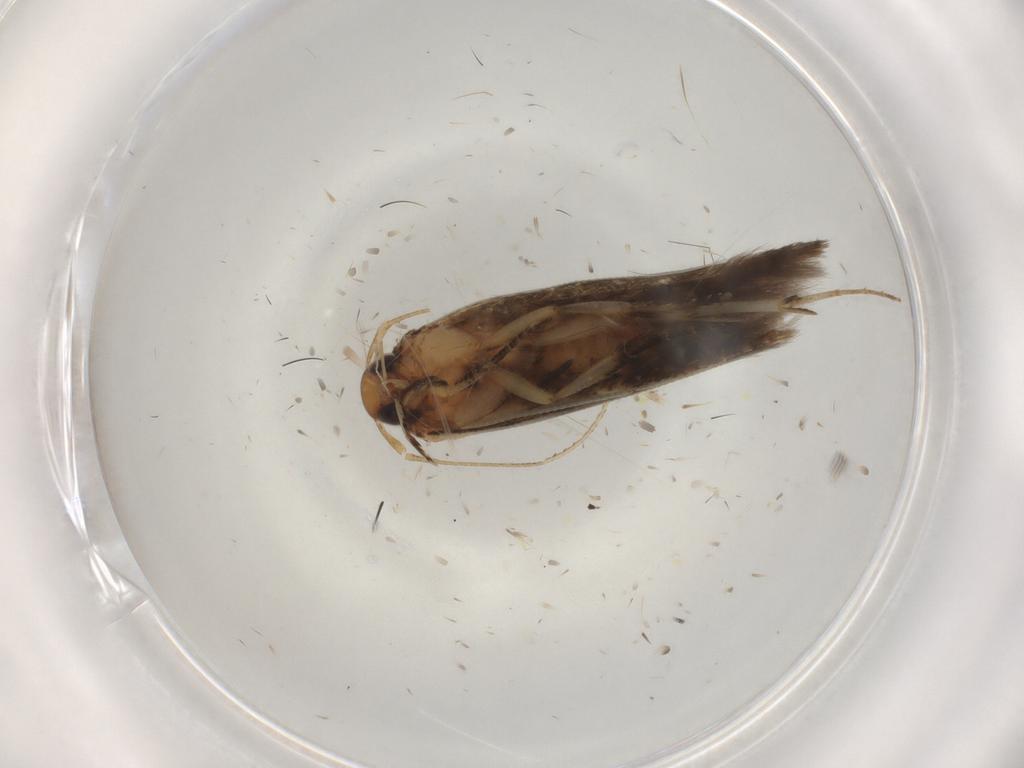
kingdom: Animalia
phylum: Arthropoda
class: Insecta
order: Lepidoptera
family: Cosmopterigidae
